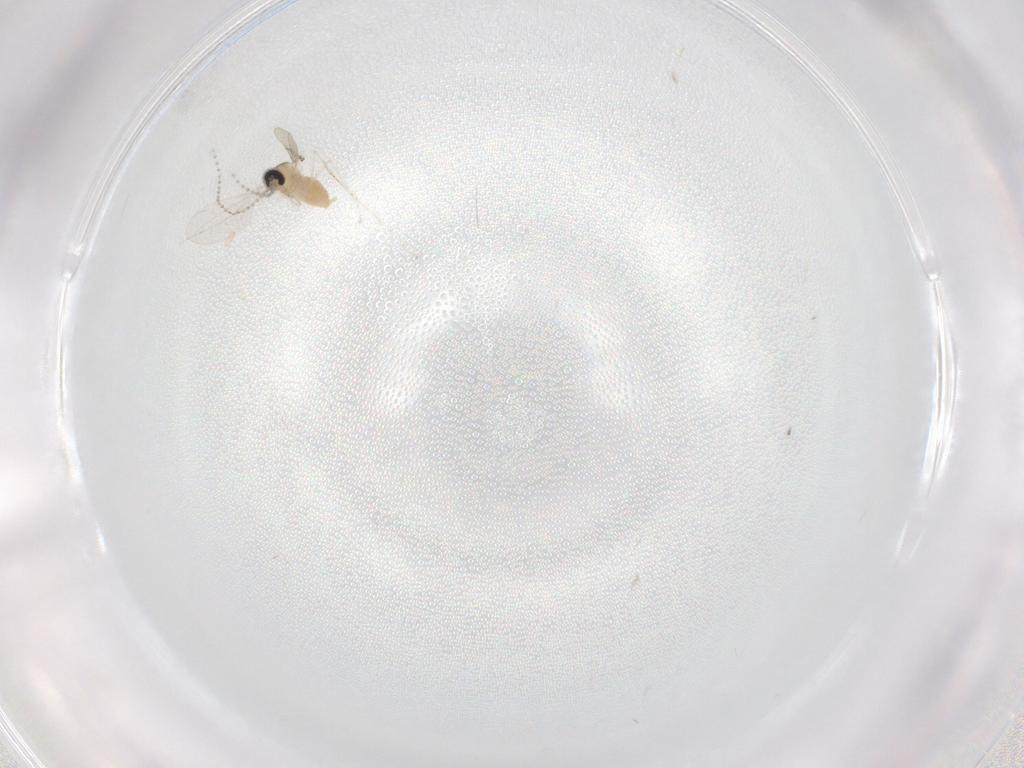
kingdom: Animalia
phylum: Arthropoda
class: Insecta
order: Diptera
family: Cecidomyiidae
